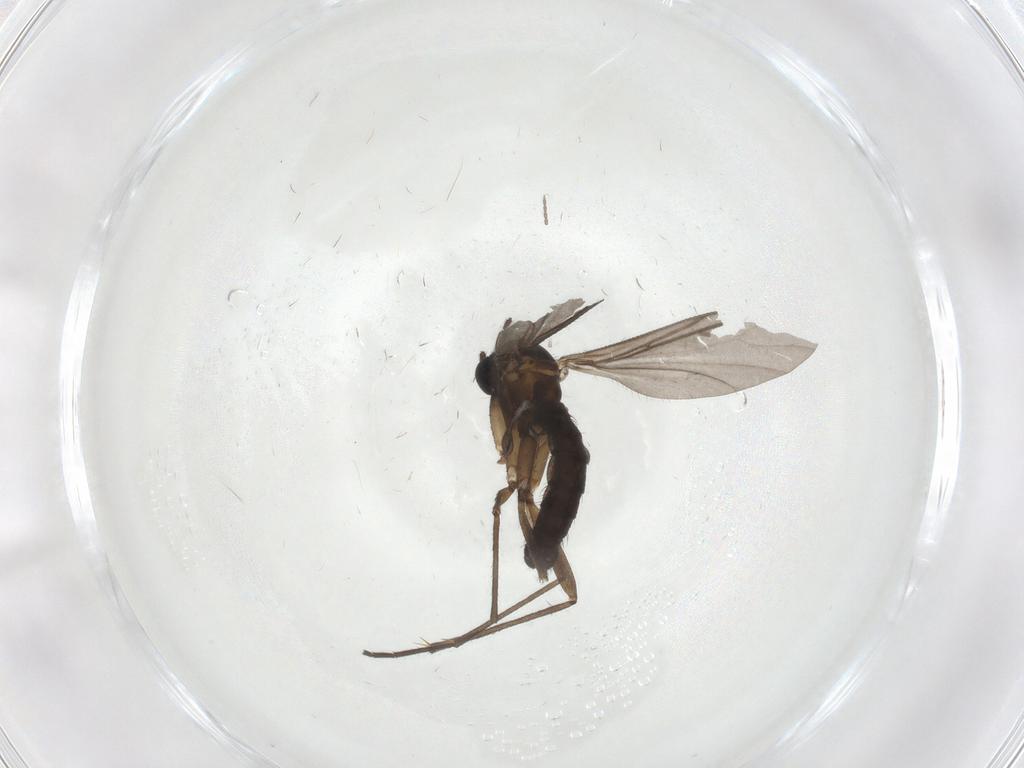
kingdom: Animalia
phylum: Arthropoda
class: Insecta
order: Diptera
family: Sciaridae
